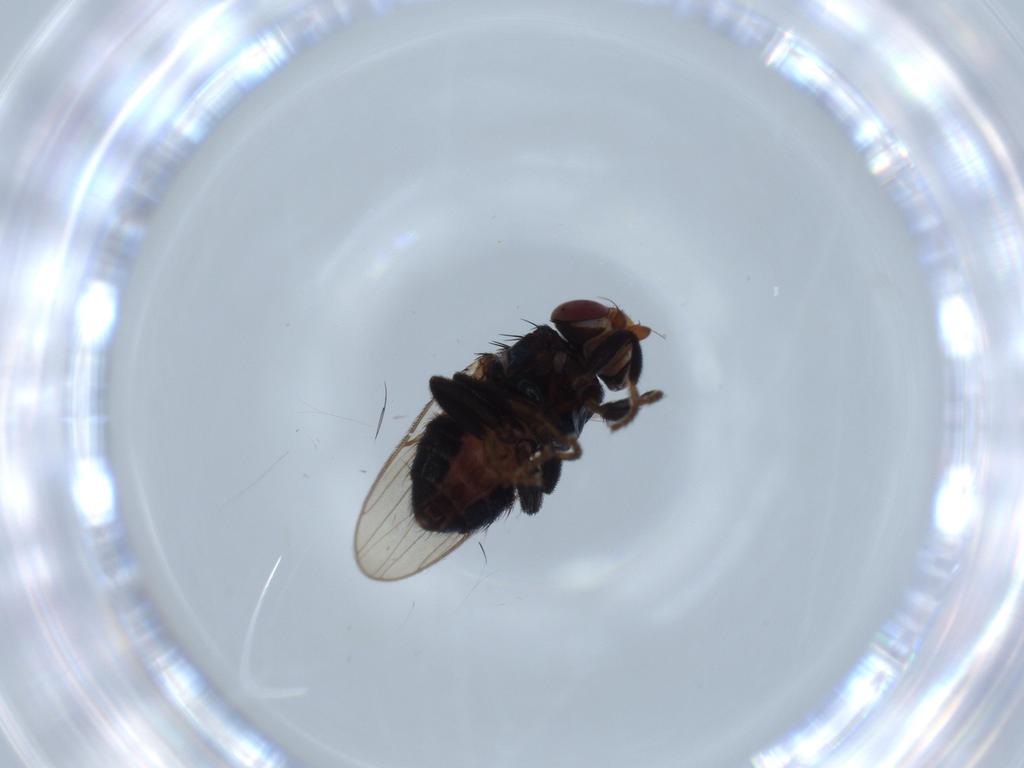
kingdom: Animalia
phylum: Arthropoda
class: Insecta
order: Diptera
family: Chloropidae
